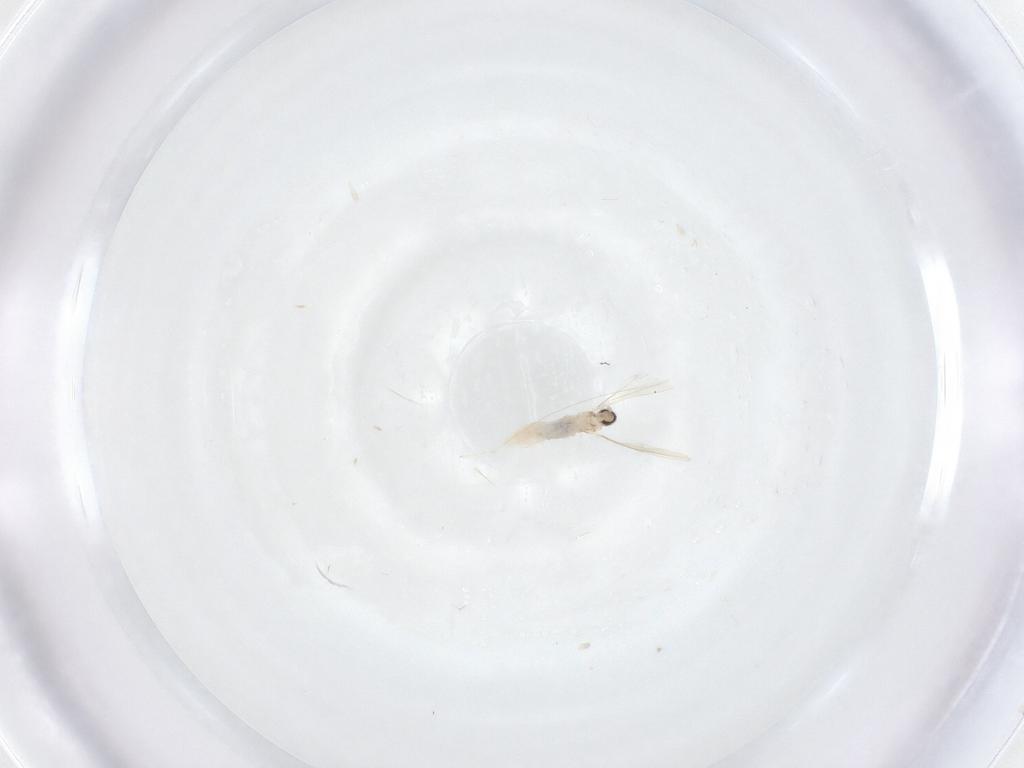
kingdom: Animalia
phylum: Arthropoda
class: Insecta
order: Diptera
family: Cecidomyiidae
